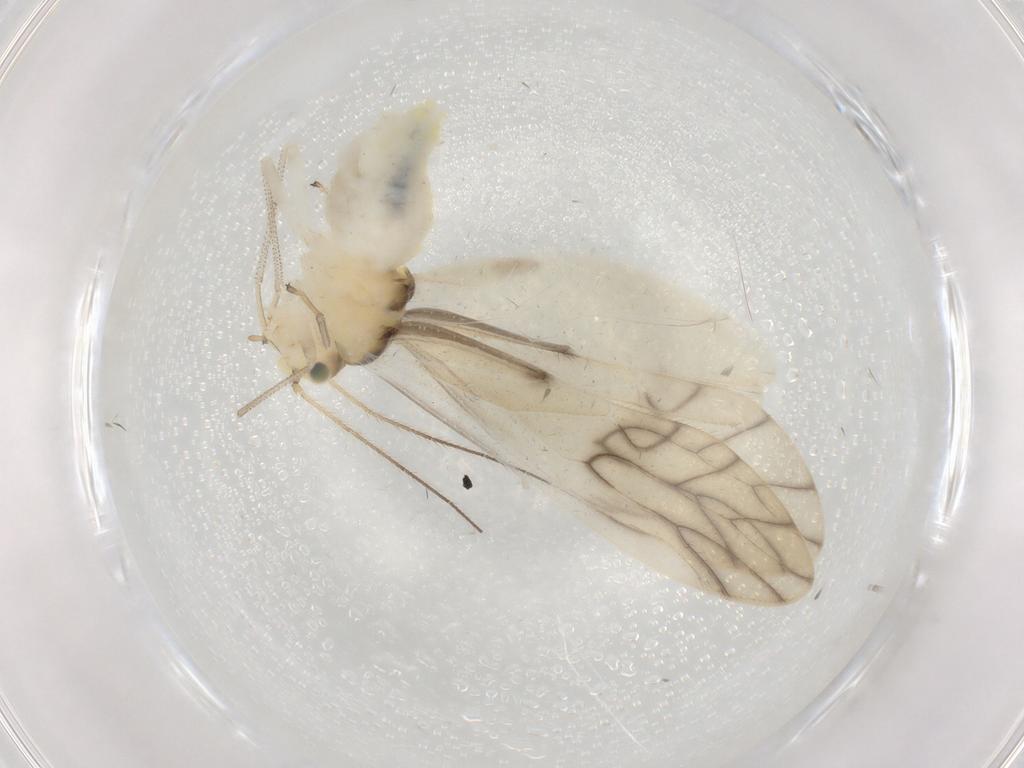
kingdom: Animalia
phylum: Arthropoda
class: Insecta
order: Psocodea
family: Caeciliusidae
